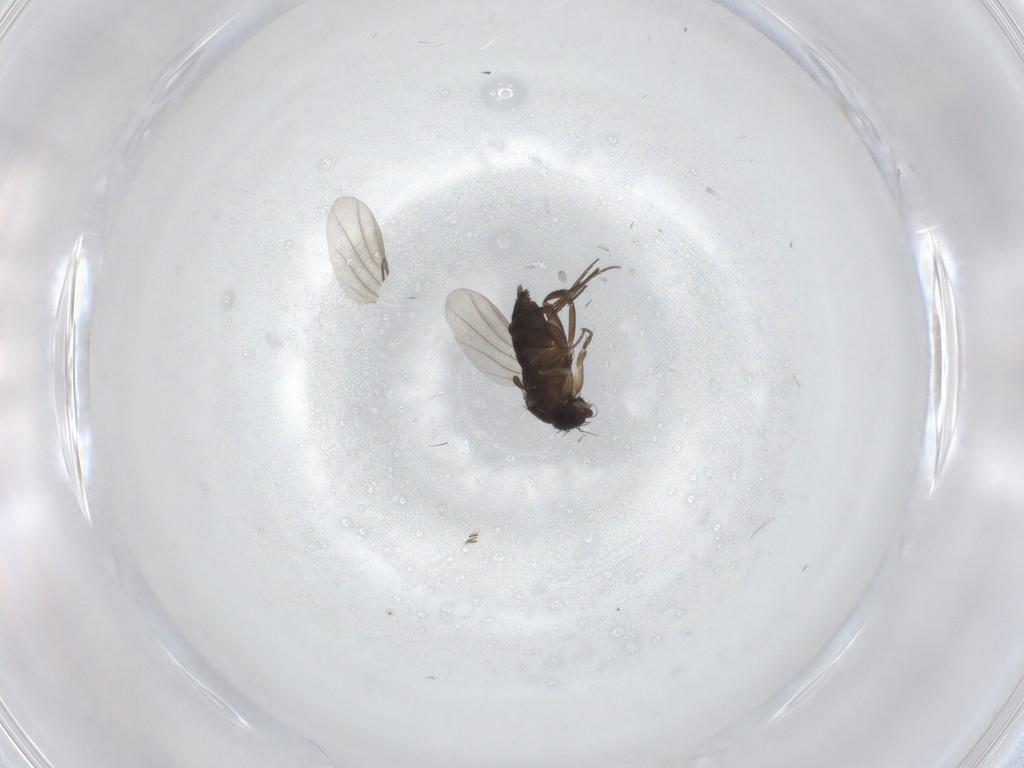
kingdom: Animalia
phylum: Arthropoda
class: Insecta
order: Diptera
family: Phoridae
